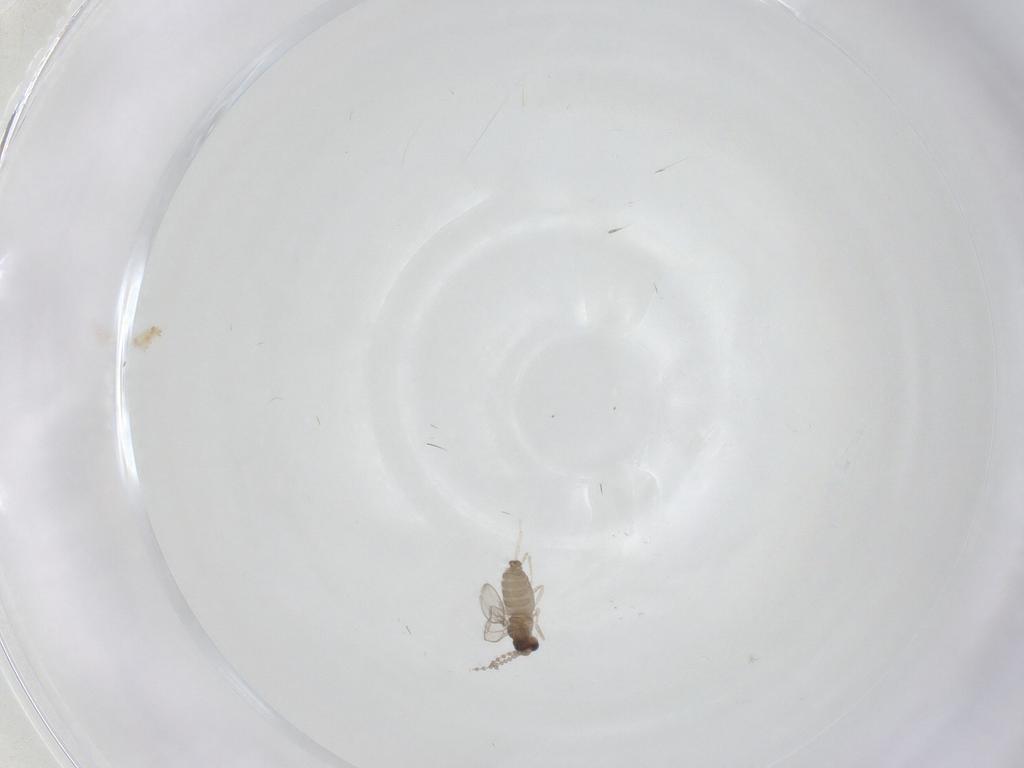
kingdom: Animalia
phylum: Arthropoda
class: Insecta
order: Diptera
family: Cecidomyiidae
